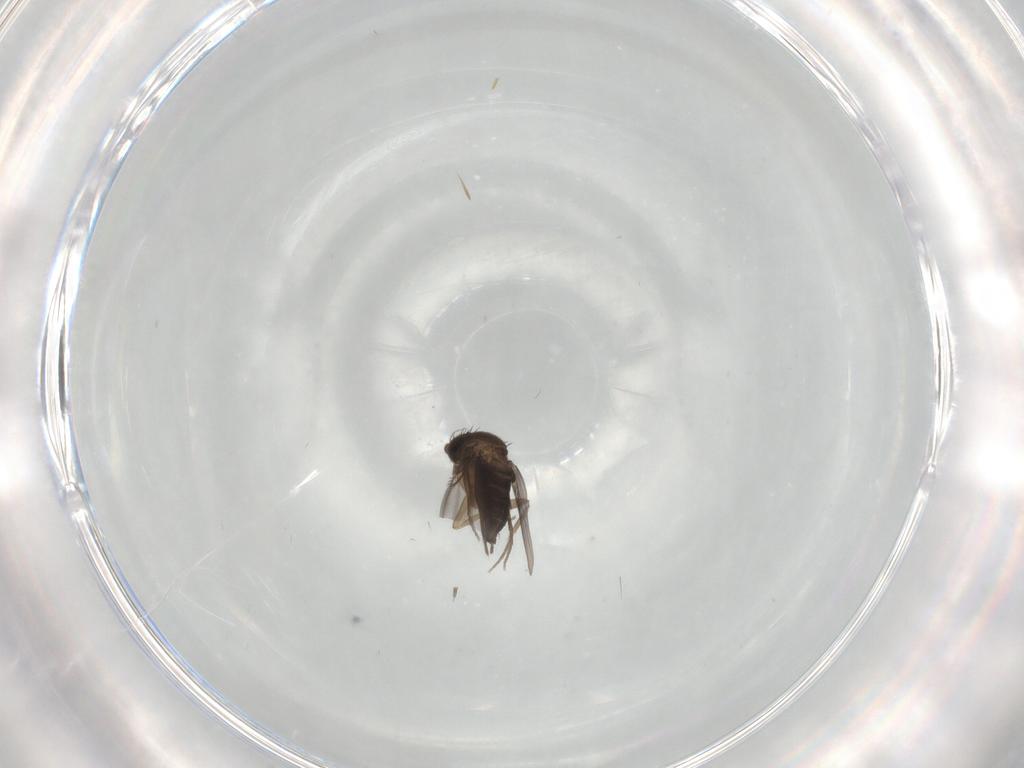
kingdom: Animalia
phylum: Arthropoda
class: Insecta
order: Diptera
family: Phoridae
